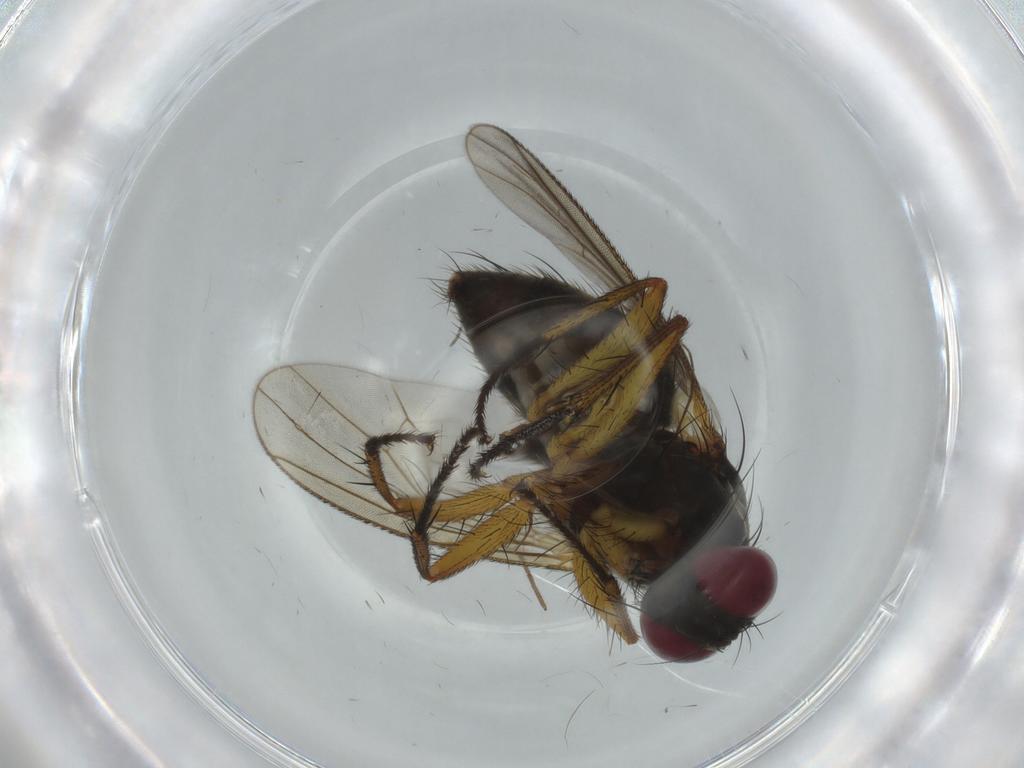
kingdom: Animalia
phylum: Arthropoda
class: Insecta
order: Diptera
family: Muscidae
